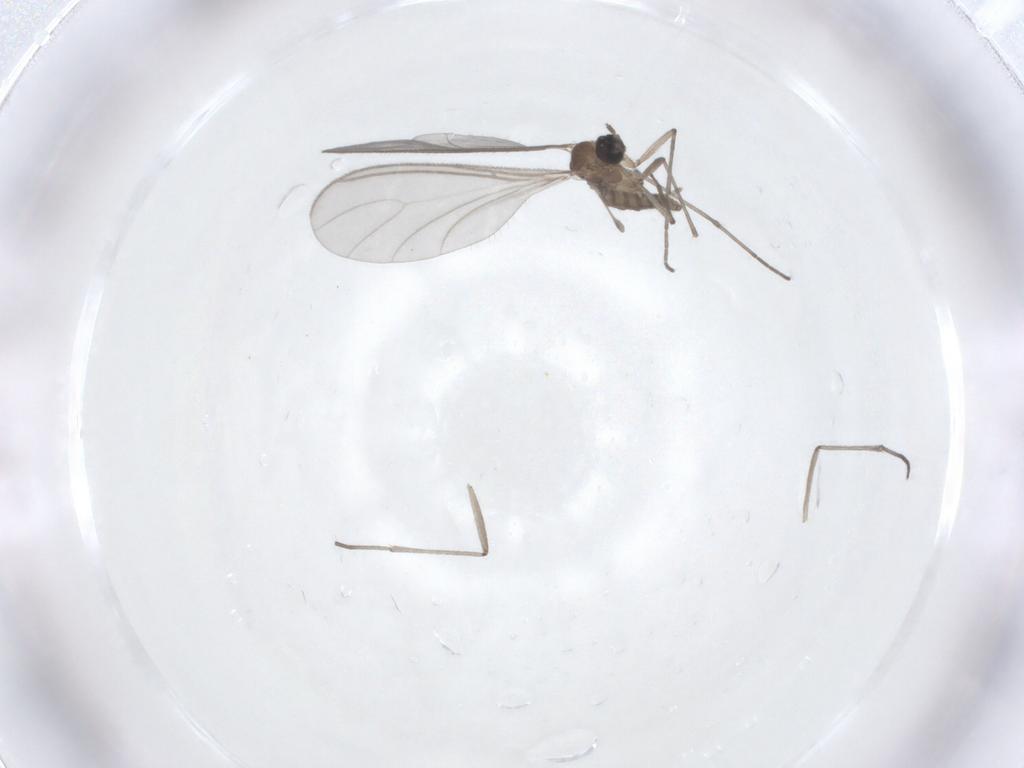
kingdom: Animalia
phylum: Arthropoda
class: Insecta
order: Diptera
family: Sciaridae
